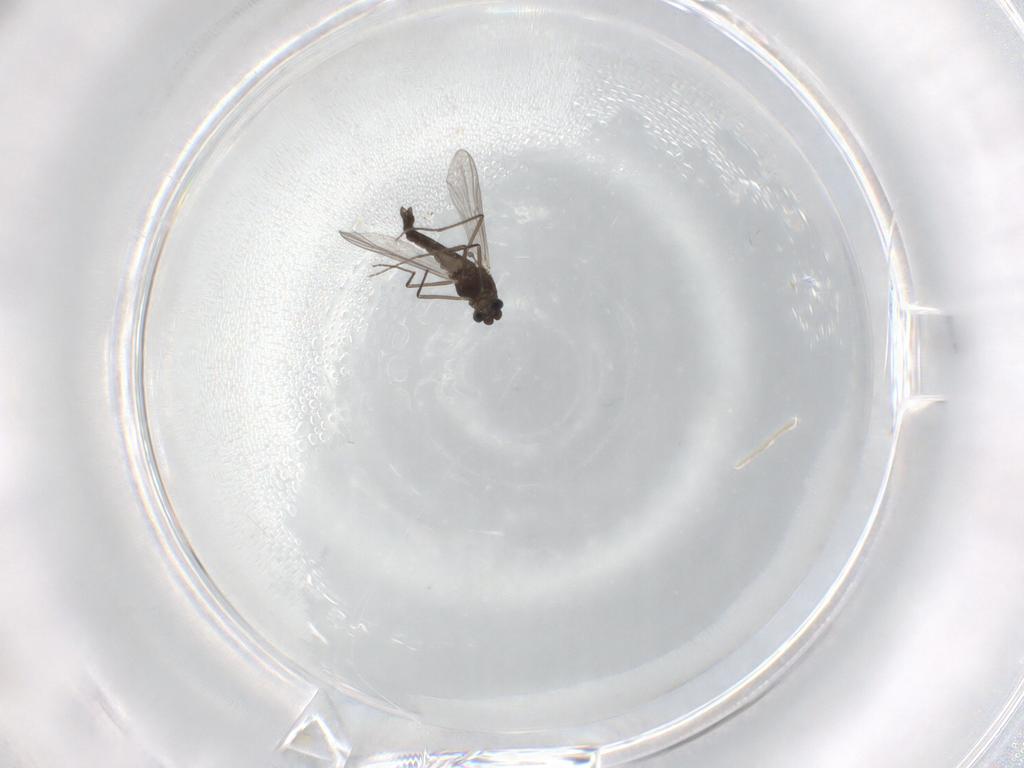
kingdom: Animalia
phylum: Arthropoda
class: Insecta
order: Diptera
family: Chironomidae
